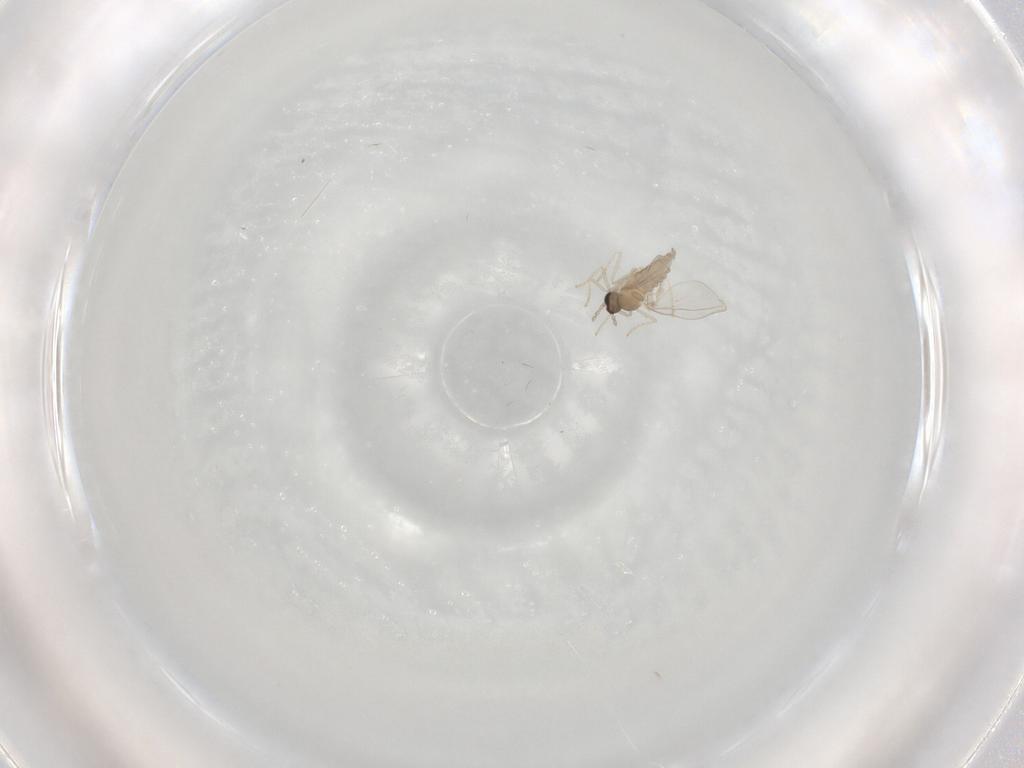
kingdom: Animalia
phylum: Arthropoda
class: Insecta
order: Diptera
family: Cecidomyiidae
